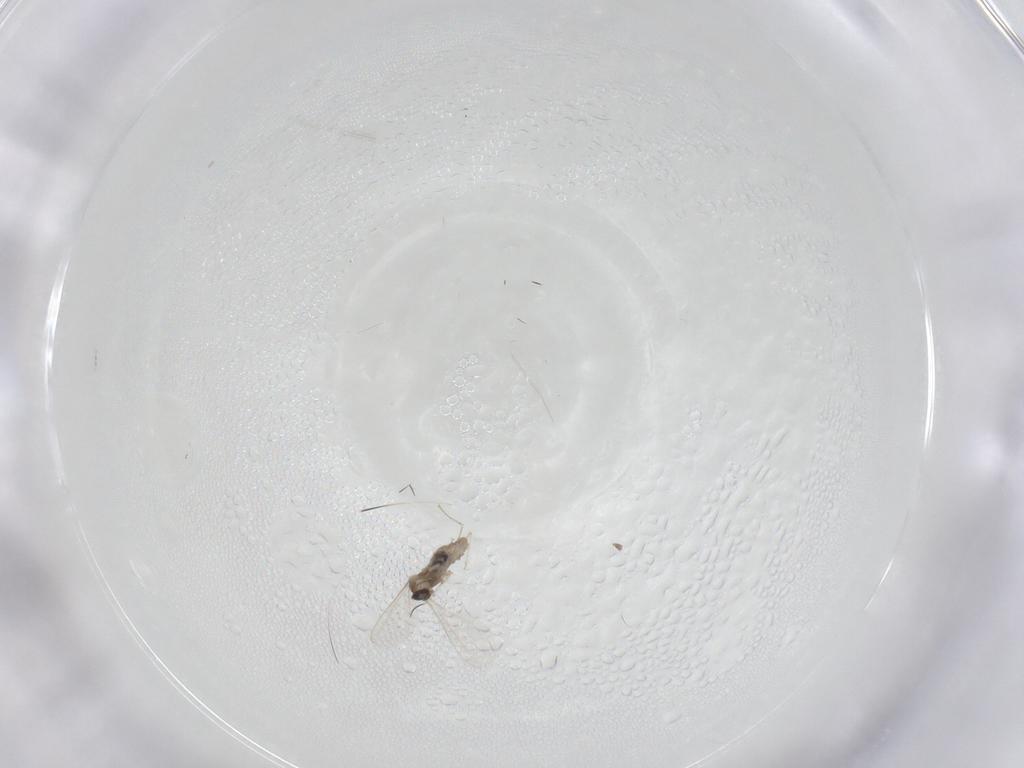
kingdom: Animalia
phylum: Arthropoda
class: Insecta
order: Diptera
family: Cecidomyiidae
